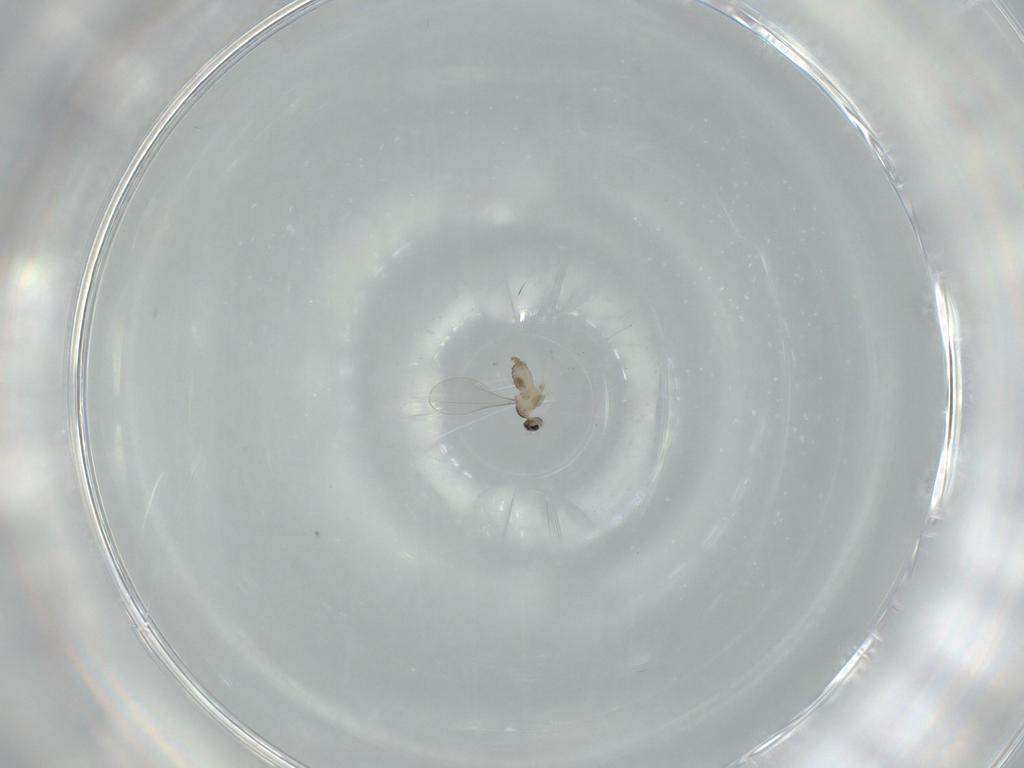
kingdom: Animalia
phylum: Arthropoda
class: Insecta
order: Diptera
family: Cecidomyiidae
